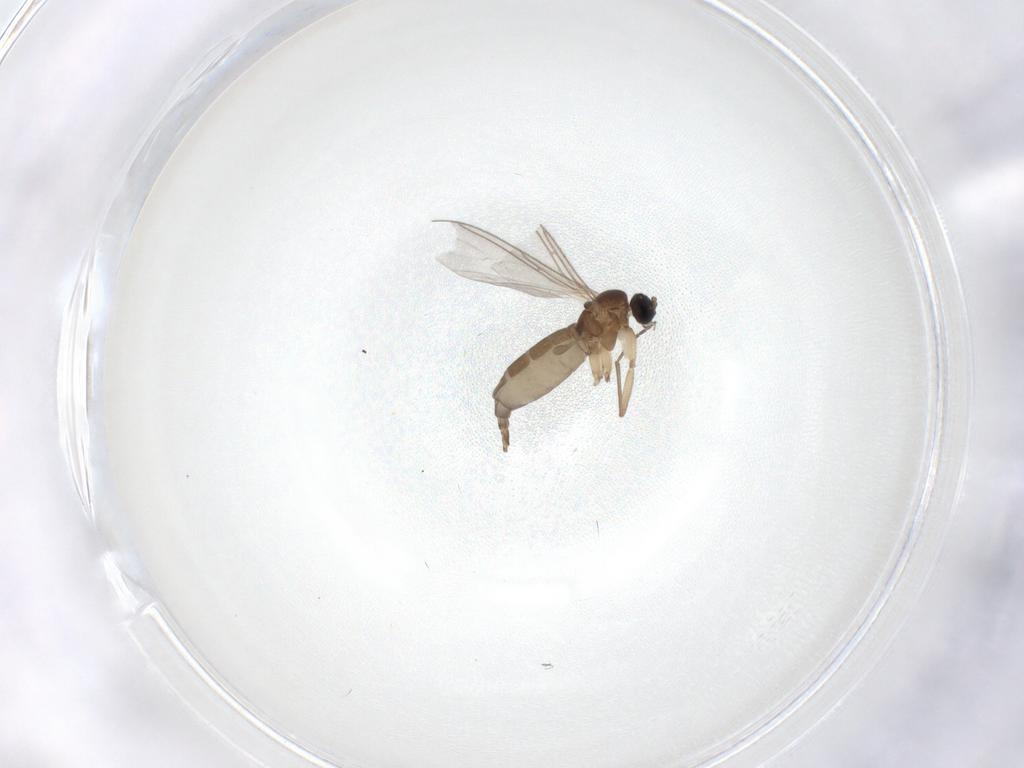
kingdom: Animalia
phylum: Arthropoda
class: Insecta
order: Diptera
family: Sciaridae
